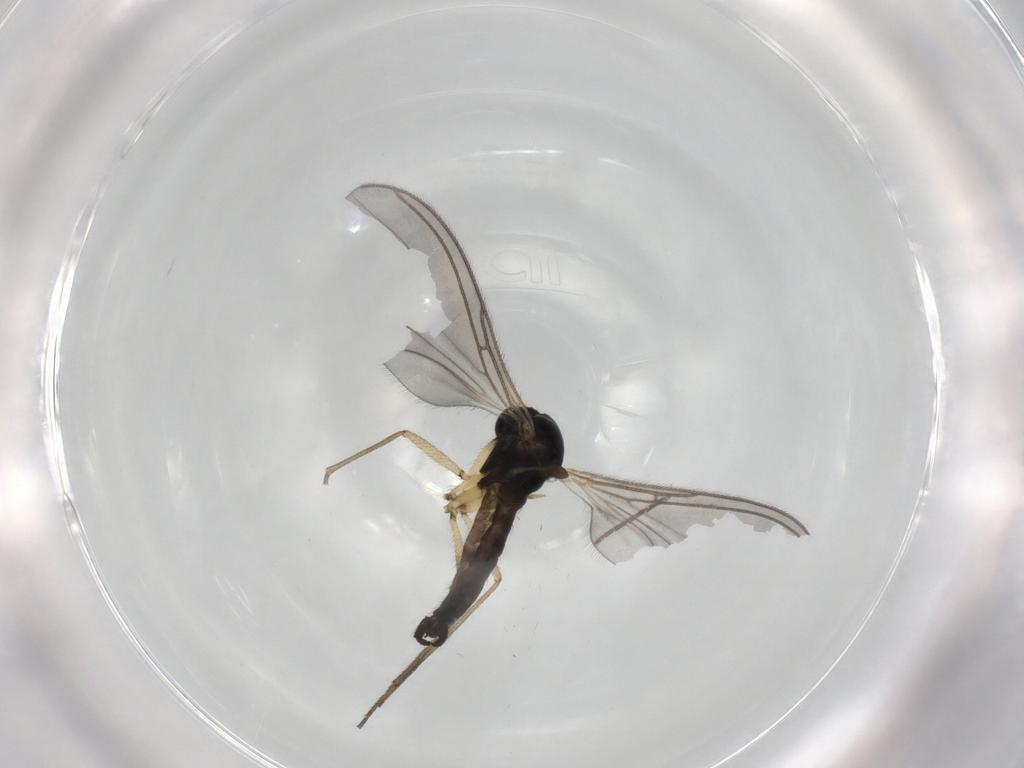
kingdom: Animalia
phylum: Arthropoda
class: Insecta
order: Diptera
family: Sciaridae
